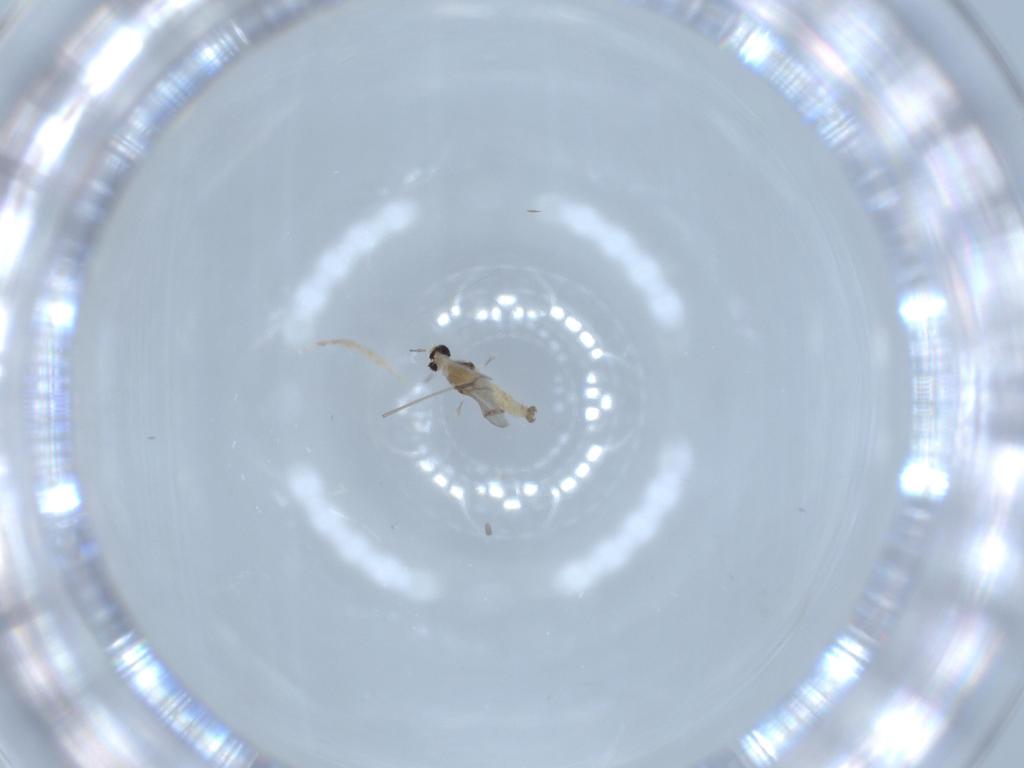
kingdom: Animalia
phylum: Arthropoda
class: Insecta
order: Diptera
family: Cecidomyiidae
